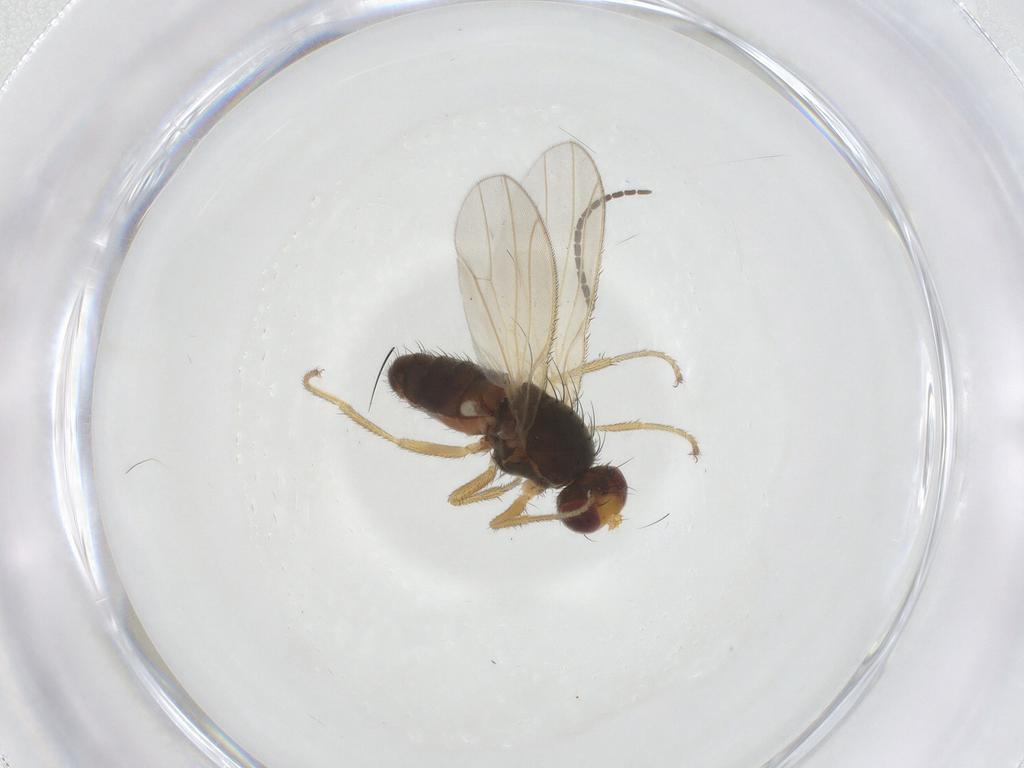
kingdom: Animalia
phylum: Arthropoda
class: Insecta
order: Diptera
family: Heleomyzidae
